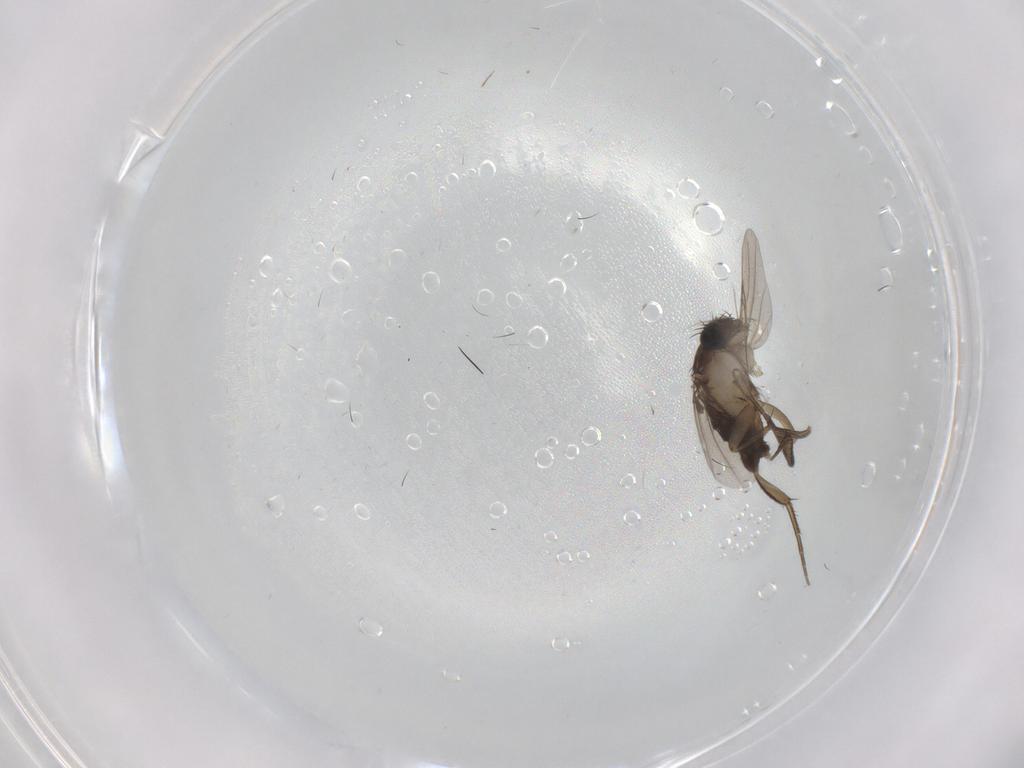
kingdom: Animalia
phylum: Arthropoda
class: Insecta
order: Diptera
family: Phoridae
